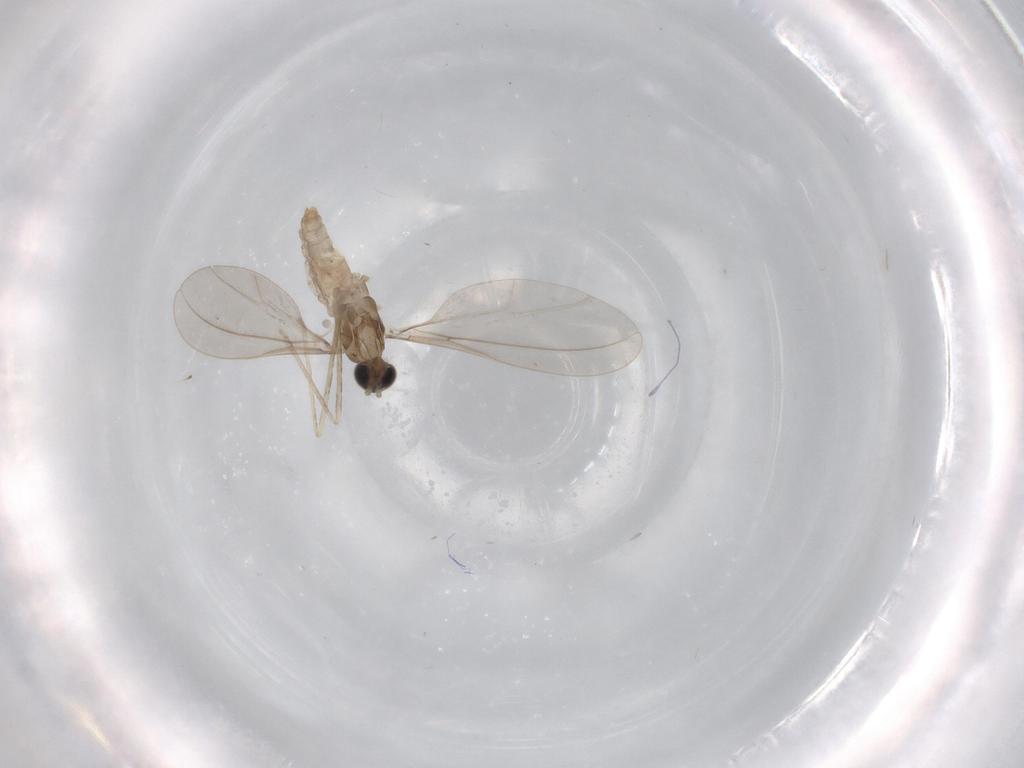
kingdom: Animalia
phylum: Arthropoda
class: Insecta
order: Diptera
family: Cecidomyiidae
